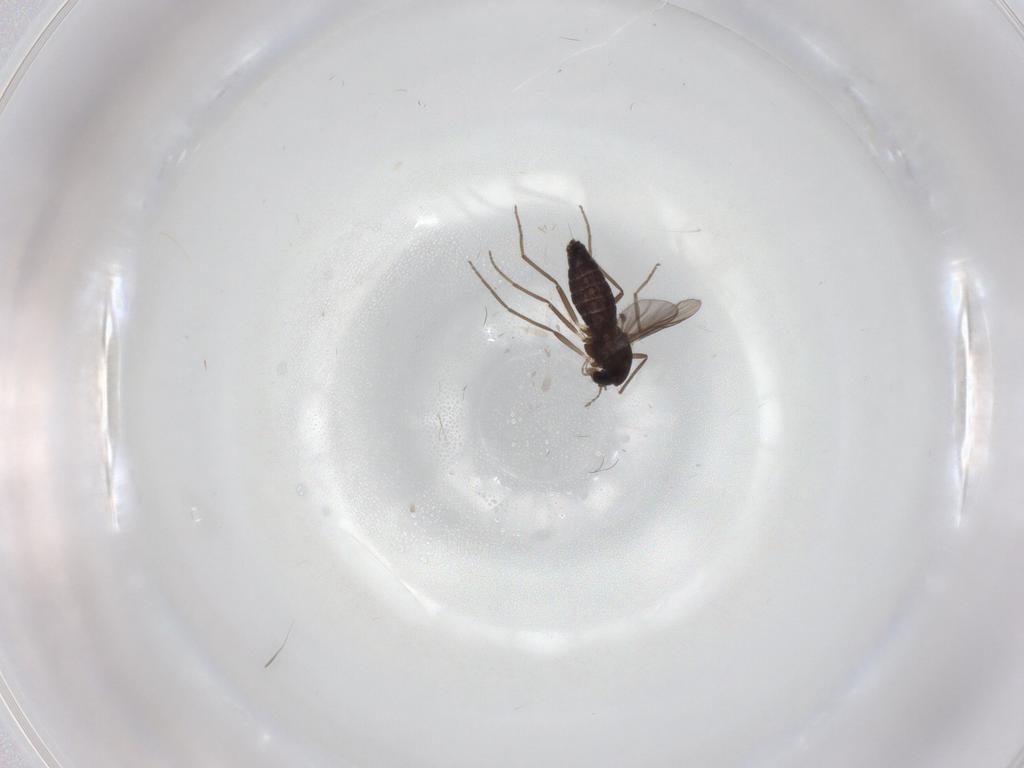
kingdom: Animalia
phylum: Arthropoda
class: Insecta
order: Diptera
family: Chironomidae
